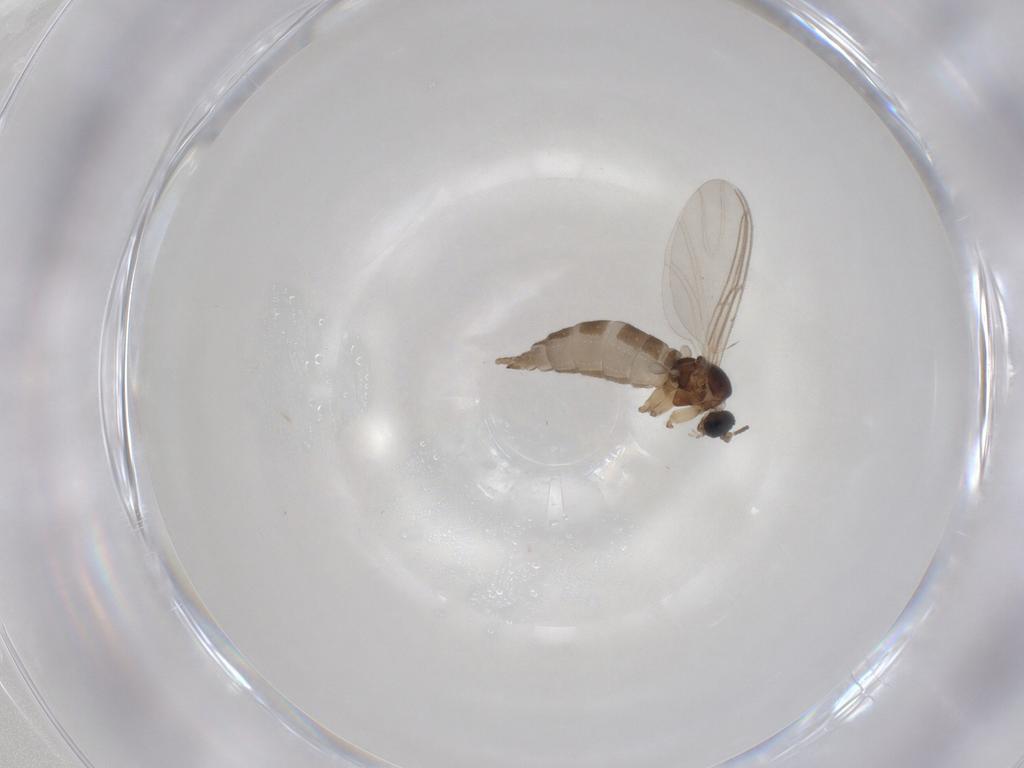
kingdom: Animalia
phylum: Arthropoda
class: Insecta
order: Diptera
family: Sciaridae
